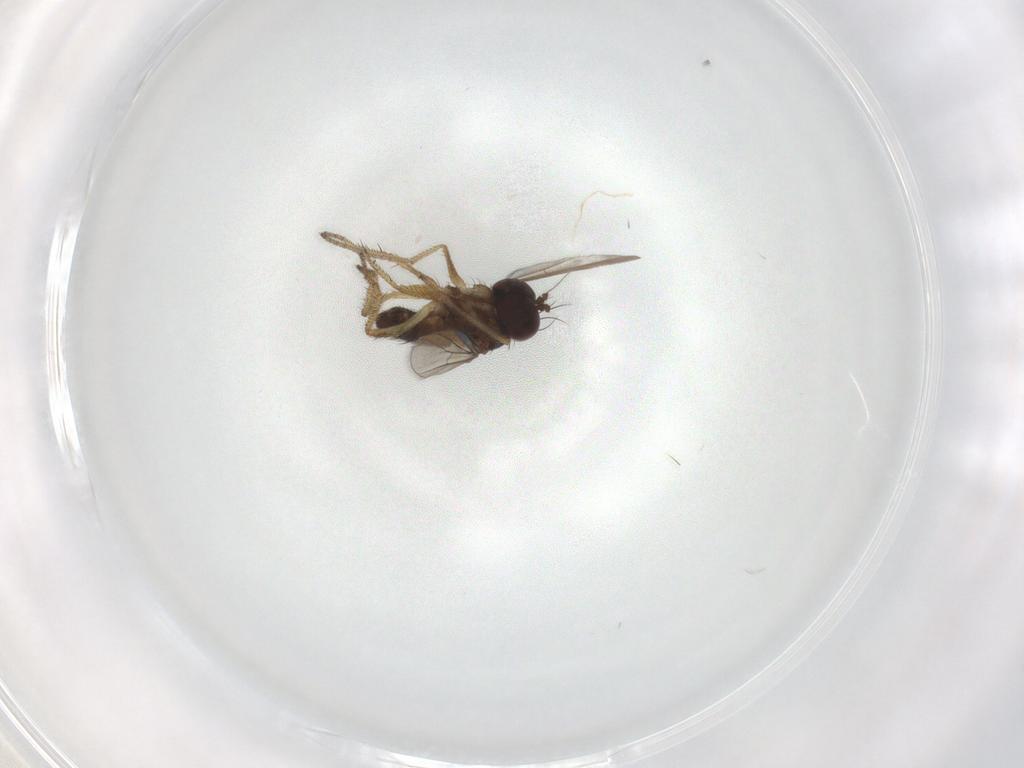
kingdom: Animalia
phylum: Arthropoda
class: Insecta
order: Diptera
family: Dolichopodidae
